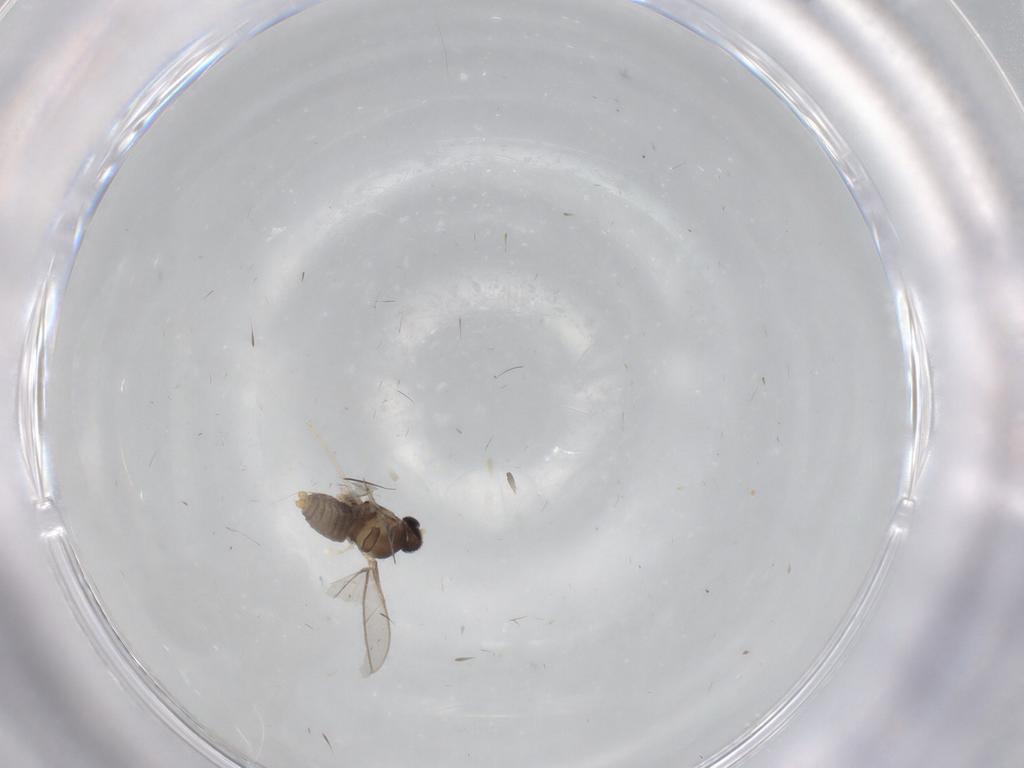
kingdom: Animalia
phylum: Arthropoda
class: Insecta
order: Diptera
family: Cecidomyiidae
